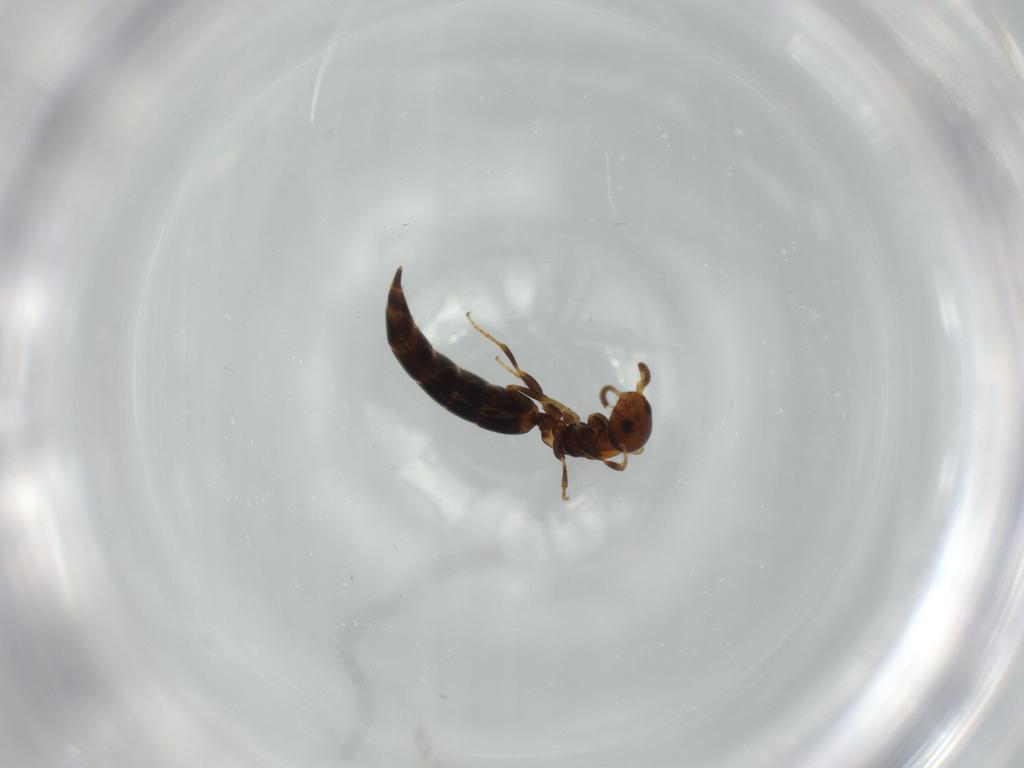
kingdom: Animalia
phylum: Arthropoda
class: Insecta
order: Hymenoptera
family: Bethylidae
